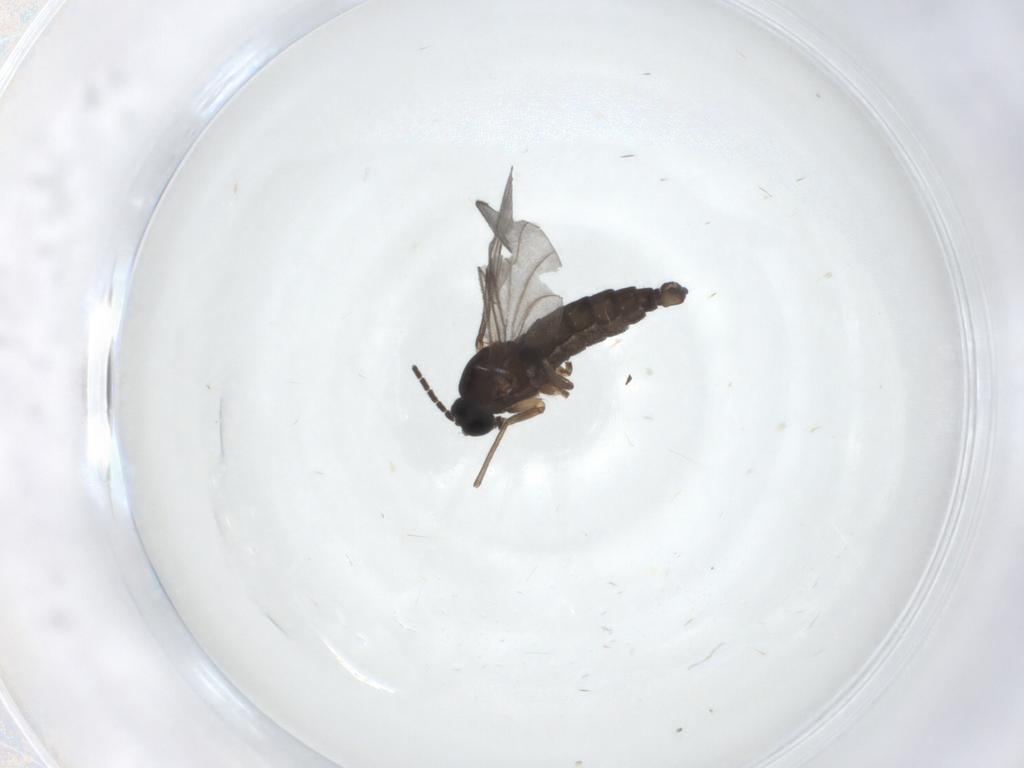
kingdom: Animalia
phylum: Arthropoda
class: Insecta
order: Diptera
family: Sciaridae
